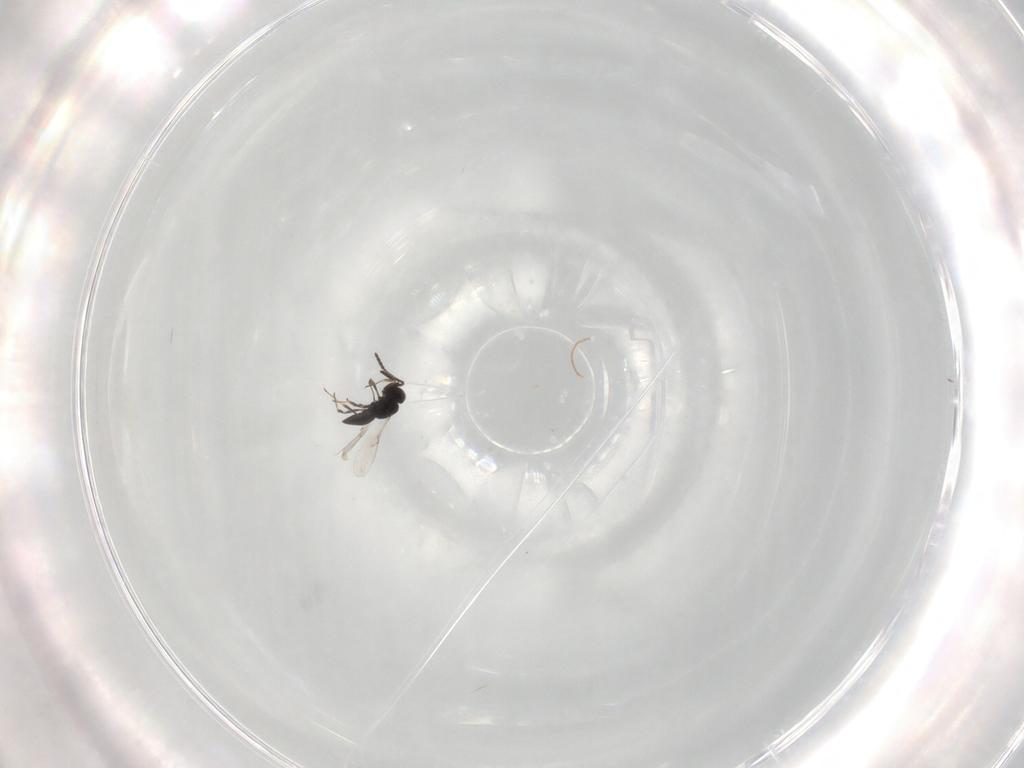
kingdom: Animalia
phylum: Arthropoda
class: Insecta
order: Hymenoptera
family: Scelionidae
